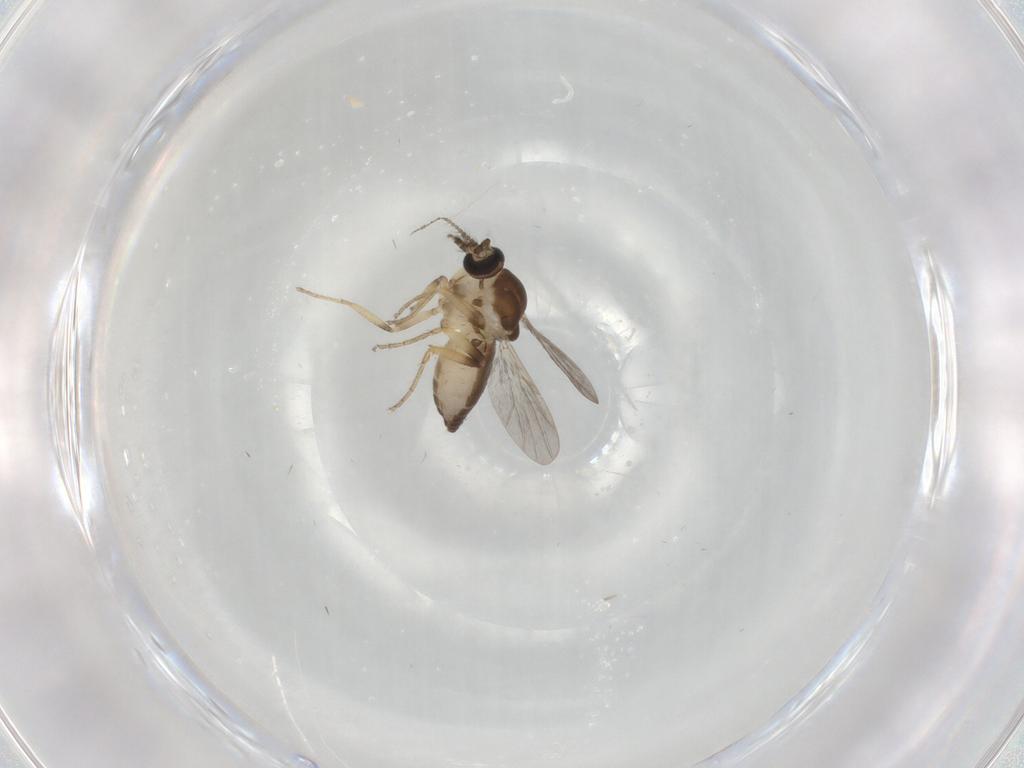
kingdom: Animalia
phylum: Arthropoda
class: Insecta
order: Diptera
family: Ceratopogonidae
